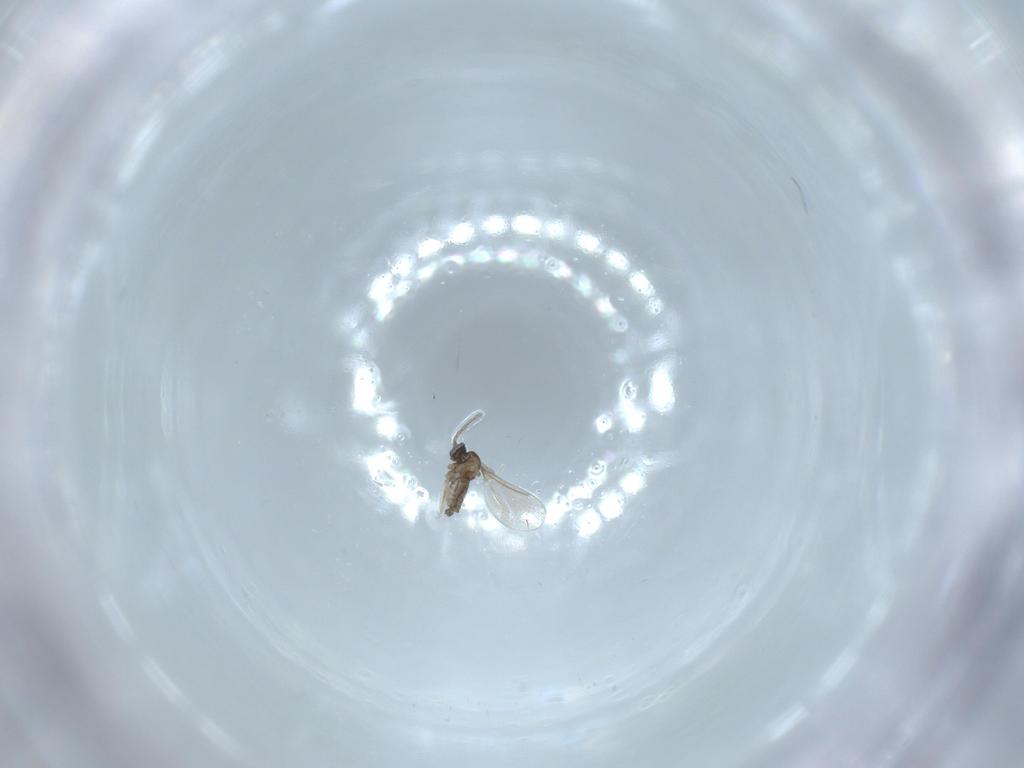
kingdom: Animalia
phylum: Arthropoda
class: Insecta
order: Diptera
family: Cecidomyiidae
